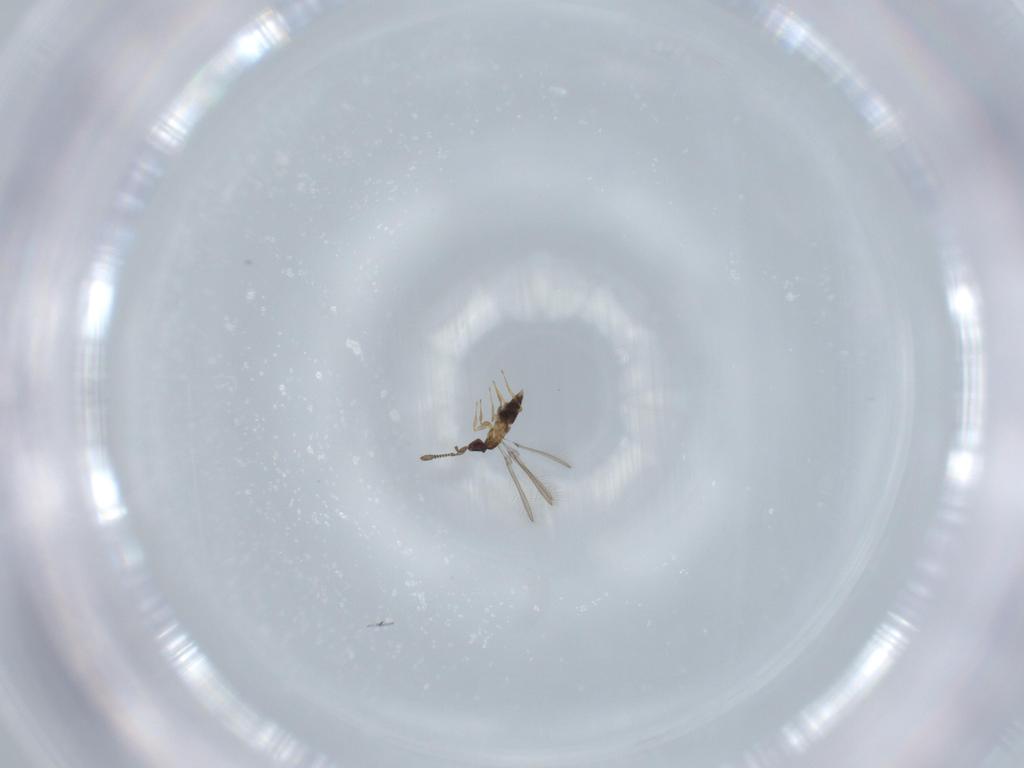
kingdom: Animalia
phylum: Arthropoda
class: Insecta
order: Hymenoptera
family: Mymaridae
